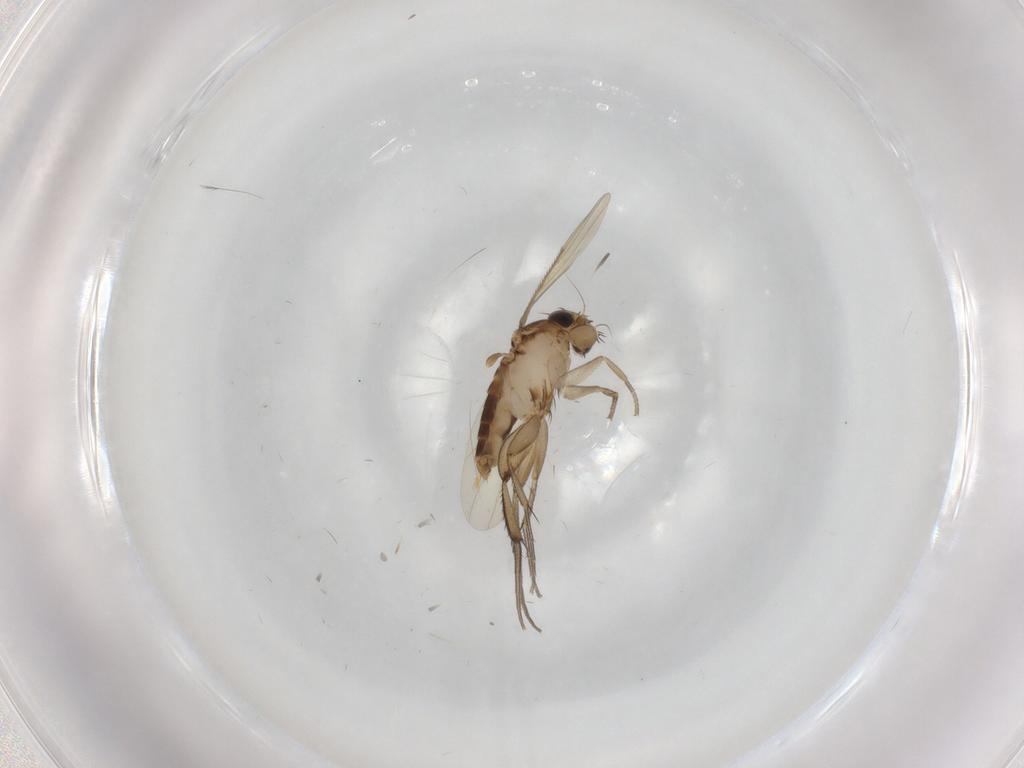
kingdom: Animalia
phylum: Arthropoda
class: Insecta
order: Diptera
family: Phoridae
